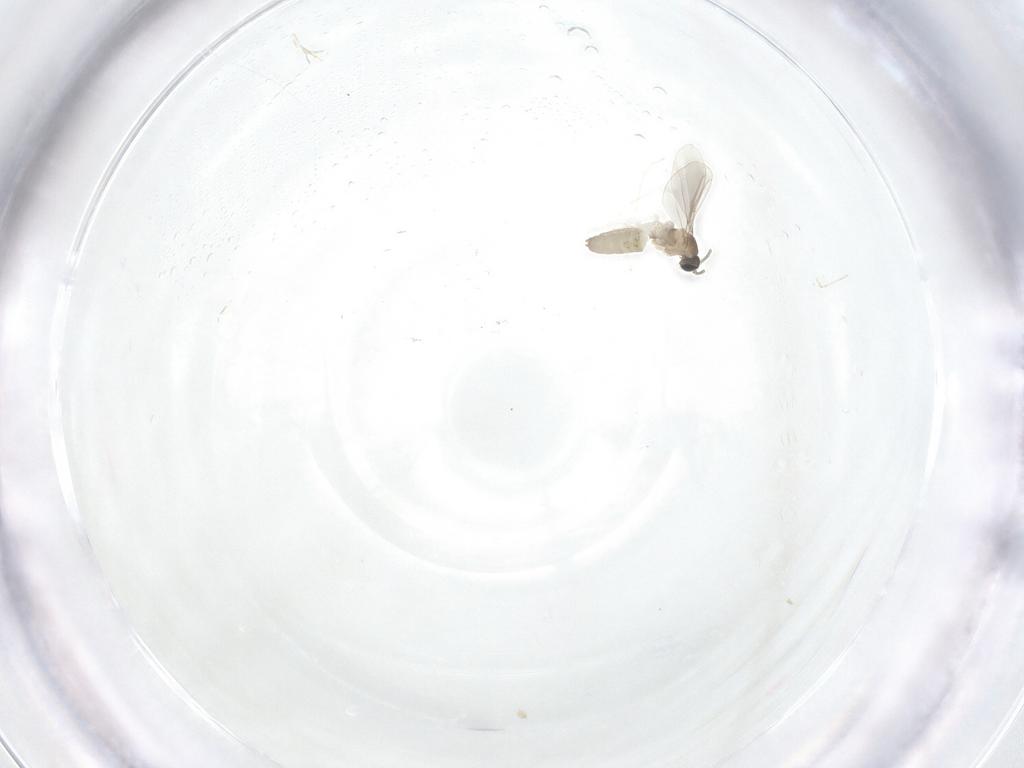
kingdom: Animalia
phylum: Arthropoda
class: Insecta
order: Diptera
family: Cecidomyiidae
